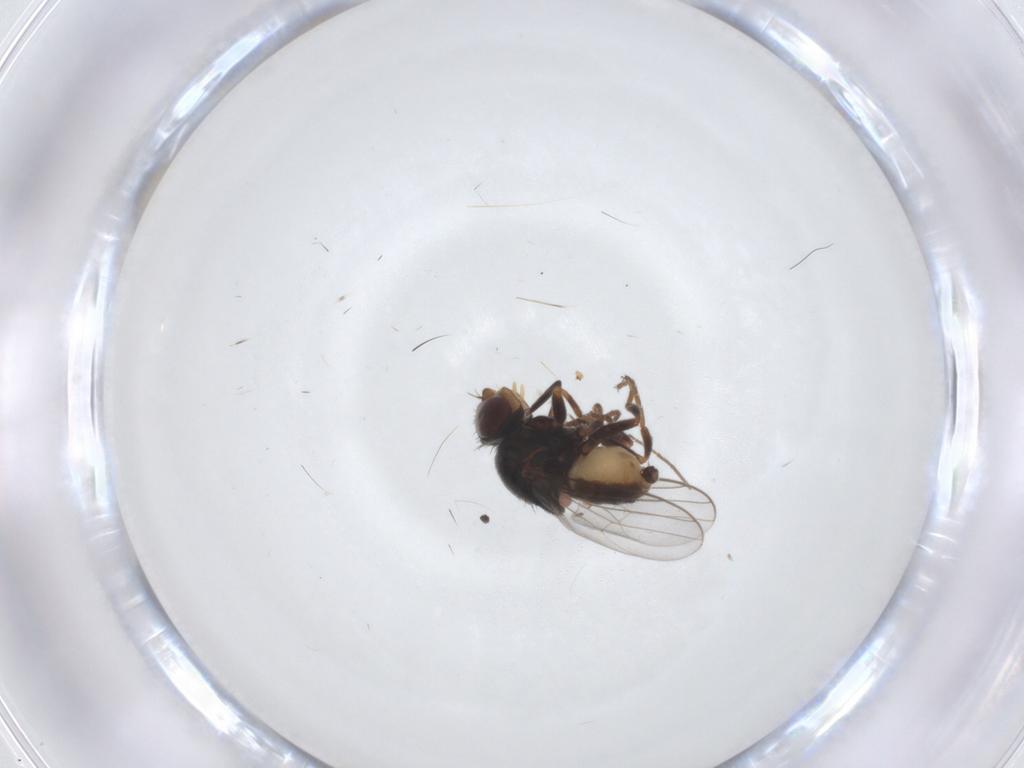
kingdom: Animalia
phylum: Arthropoda
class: Insecta
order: Diptera
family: Chloropidae
